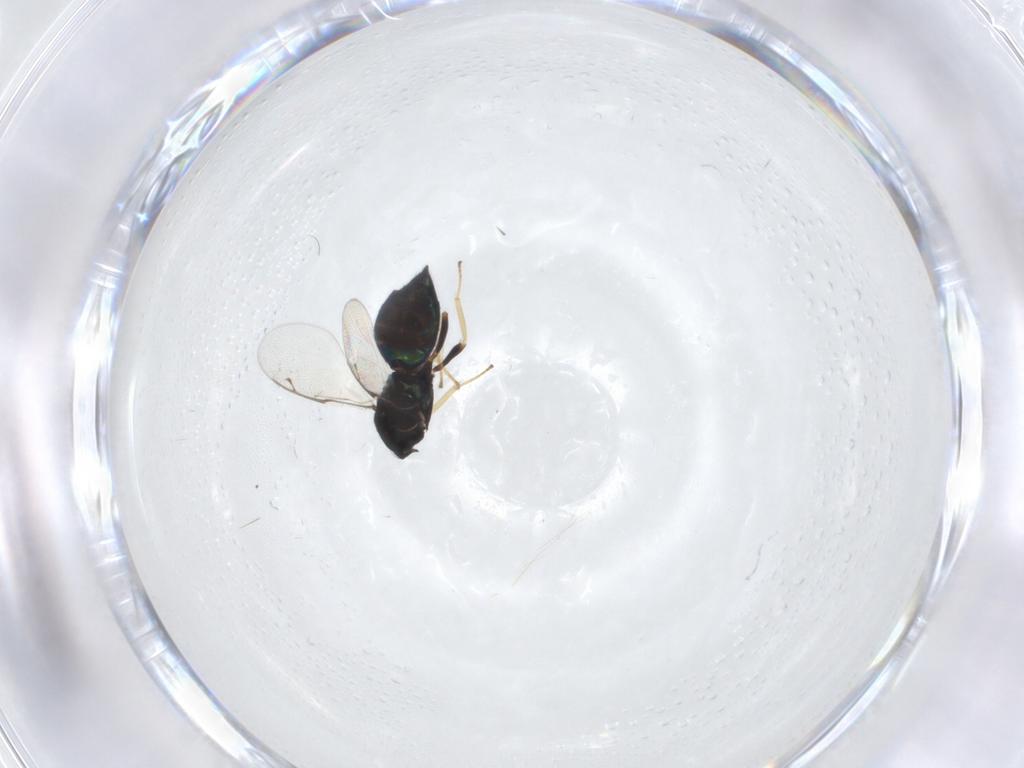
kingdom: Animalia
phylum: Arthropoda
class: Insecta
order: Hymenoptera
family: Pteromalidae
